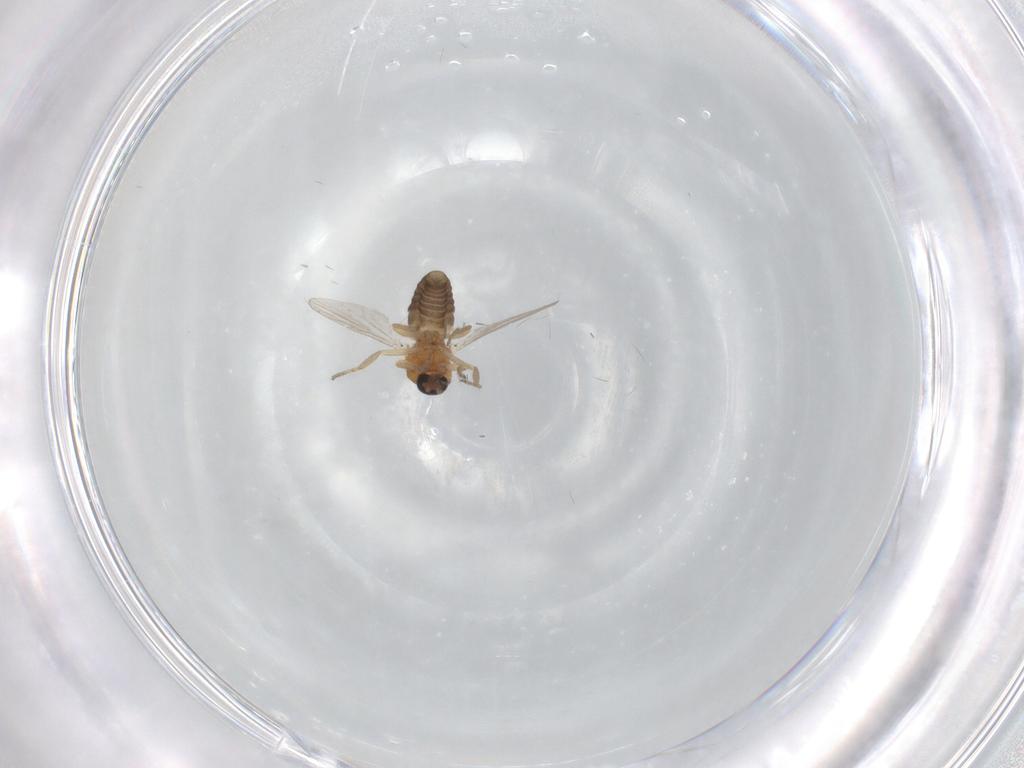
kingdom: Animalia
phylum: Arthropoda
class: Insecta
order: Diptera
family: Ceratopogonidae
